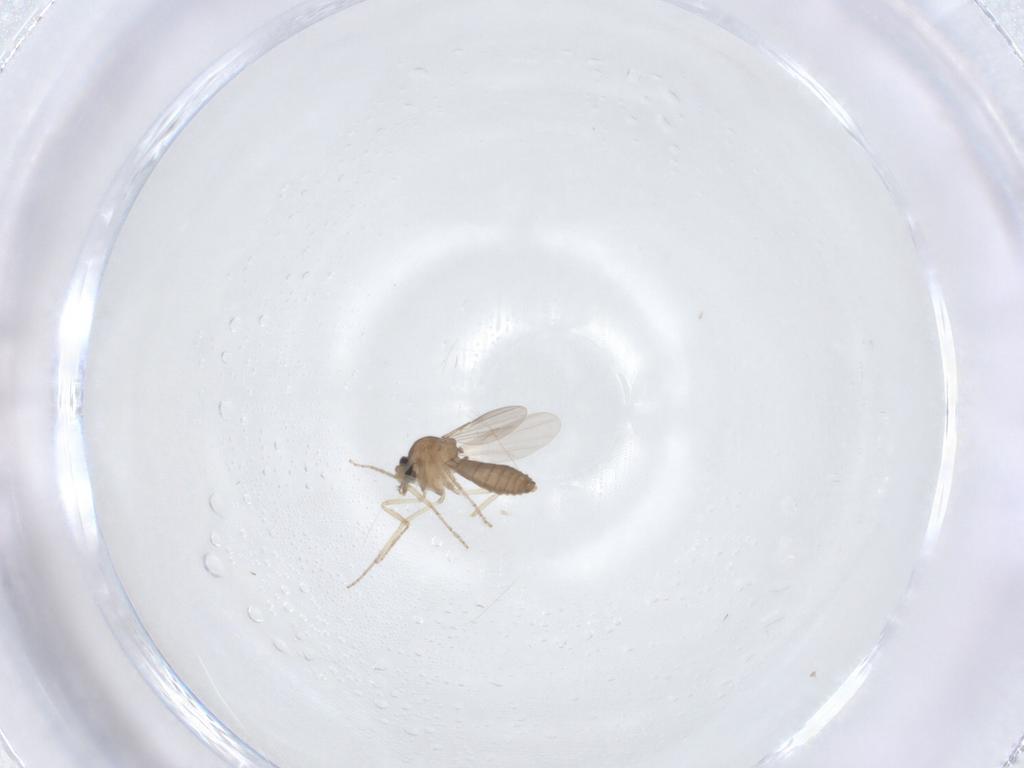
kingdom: Animalia
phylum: Arthropoda
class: Insecta
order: Diptera
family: Ceratopogonidae
